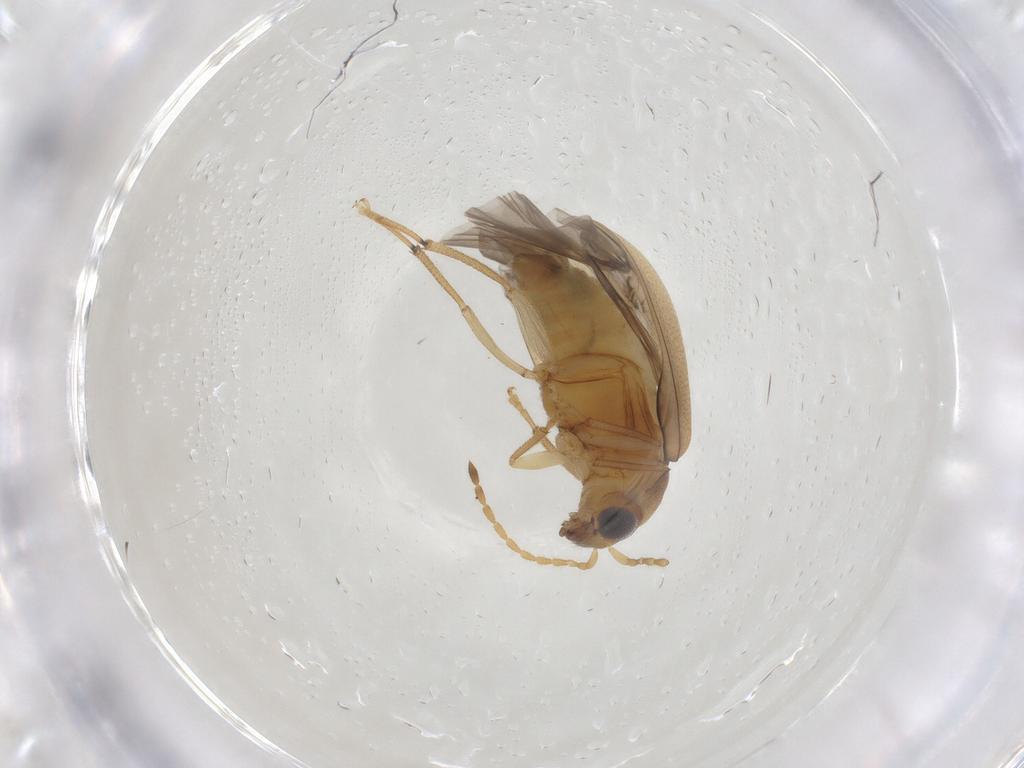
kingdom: Animalia
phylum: Arthropoda
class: Insecta
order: Coleoptera
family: Chrysomelidae
